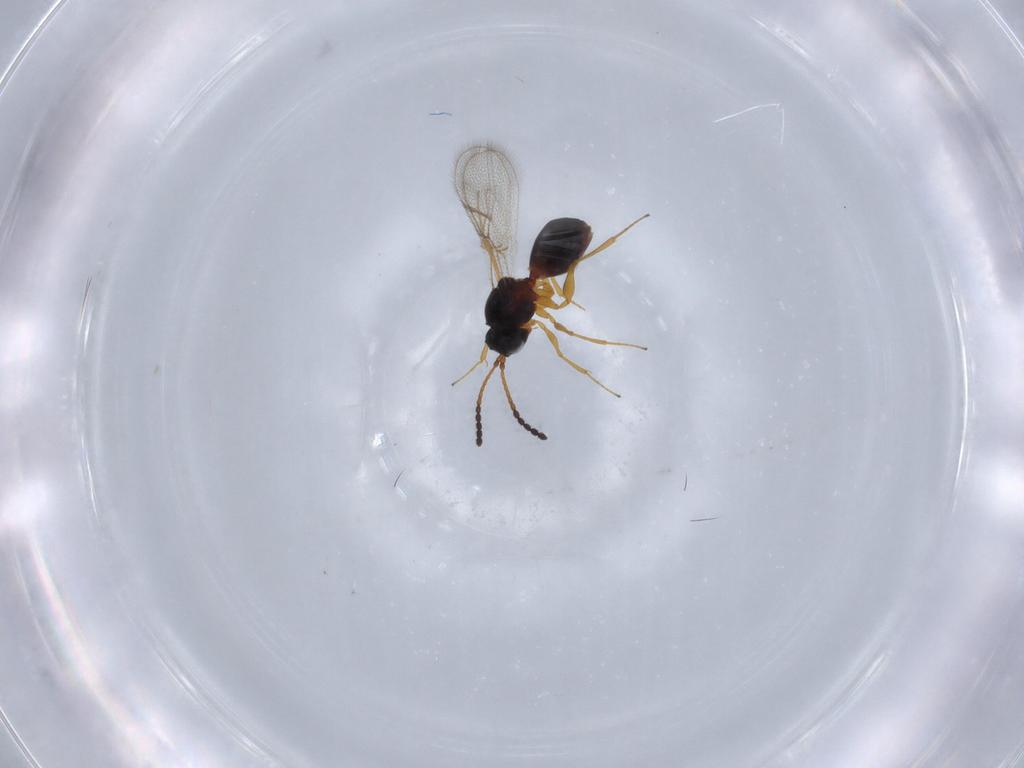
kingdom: Animalia
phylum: Arthropoda
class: Insecta
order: Hymenoptera
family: Figitidae
